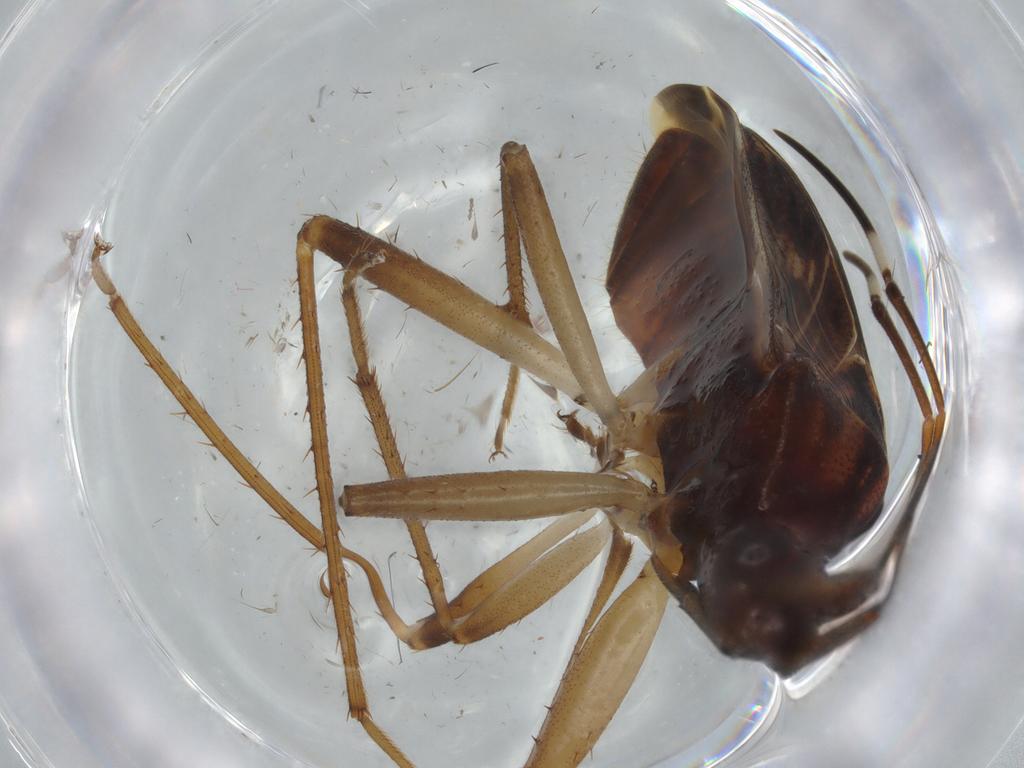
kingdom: Animalia
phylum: Arthropoda
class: Insecta
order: Hemiptera
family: Rhyparochromidae
